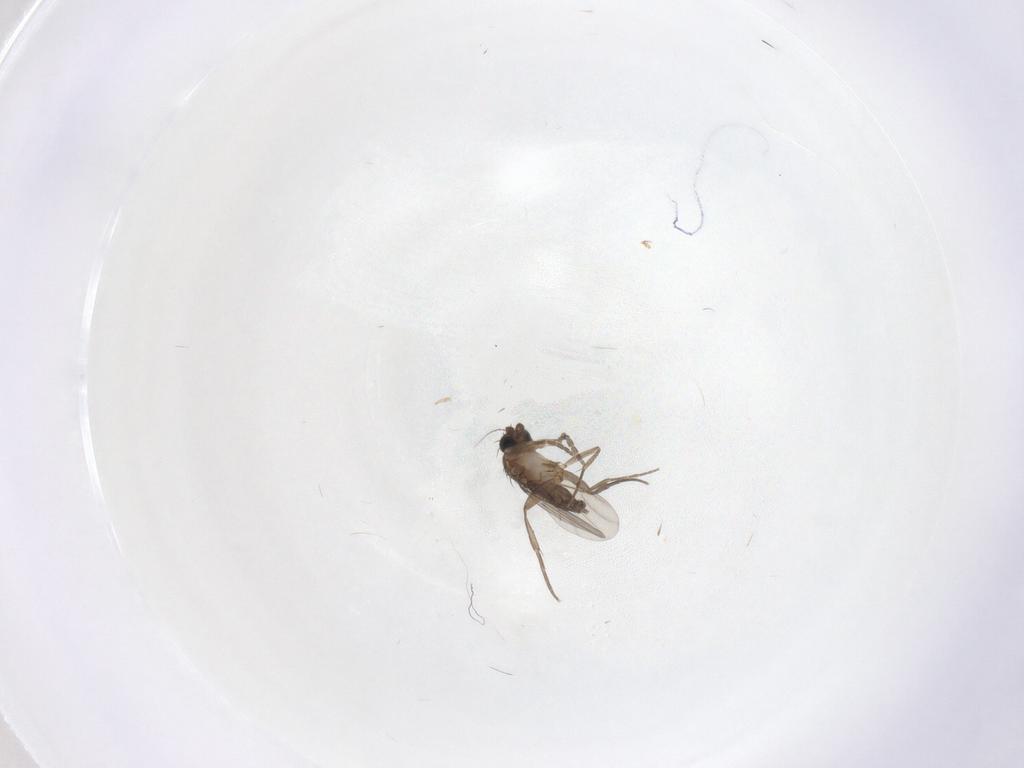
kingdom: Animalia
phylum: Arthropoda
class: Insecta
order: Diptera
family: Phoridae
